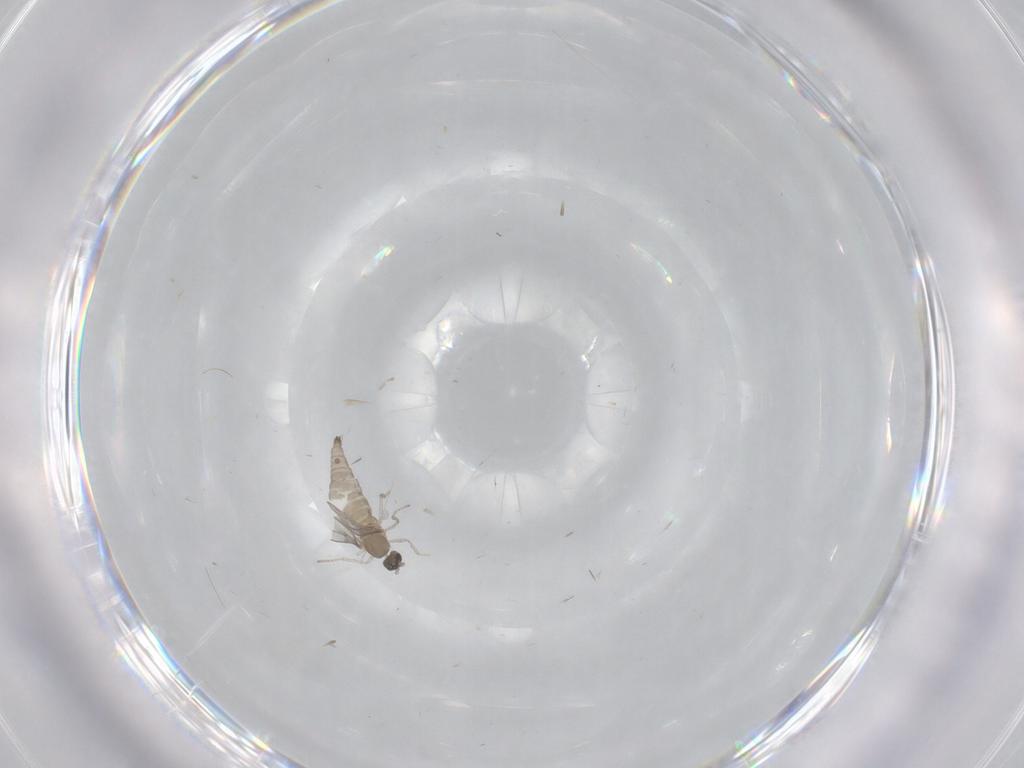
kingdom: Animalia
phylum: Arthropoda
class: Insecta
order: Diptera
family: Cecidomyiidae
